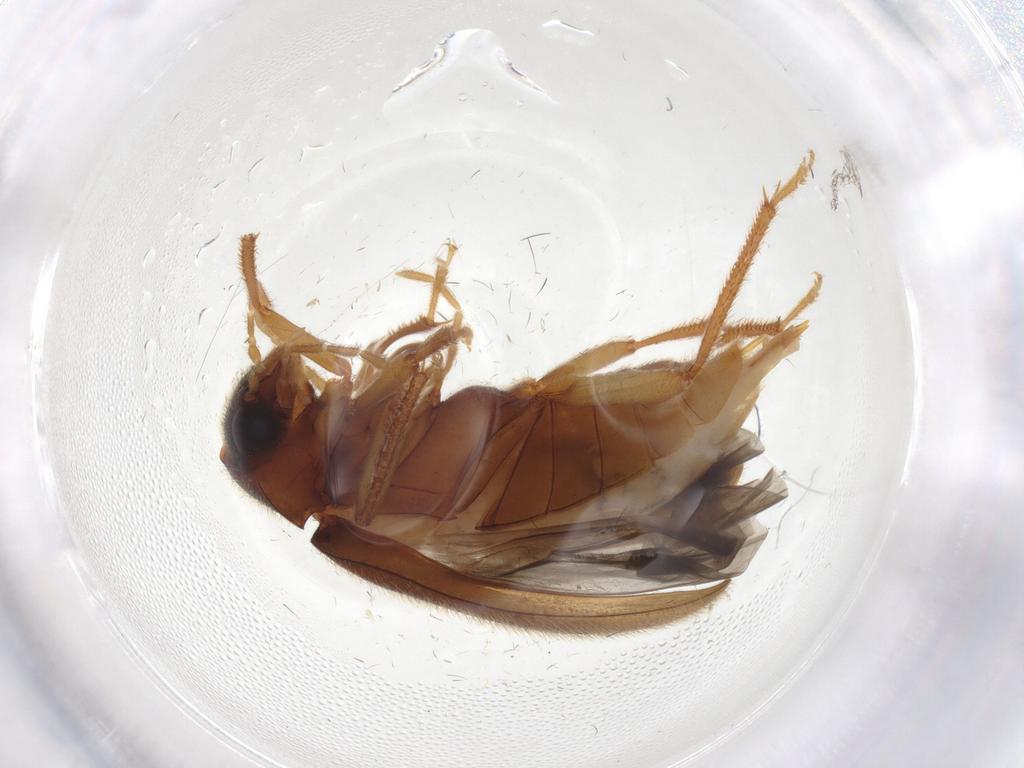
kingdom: Animalia
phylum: Arthropoda
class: Insecta
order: Coleoptera
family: Ptilodactylidae
